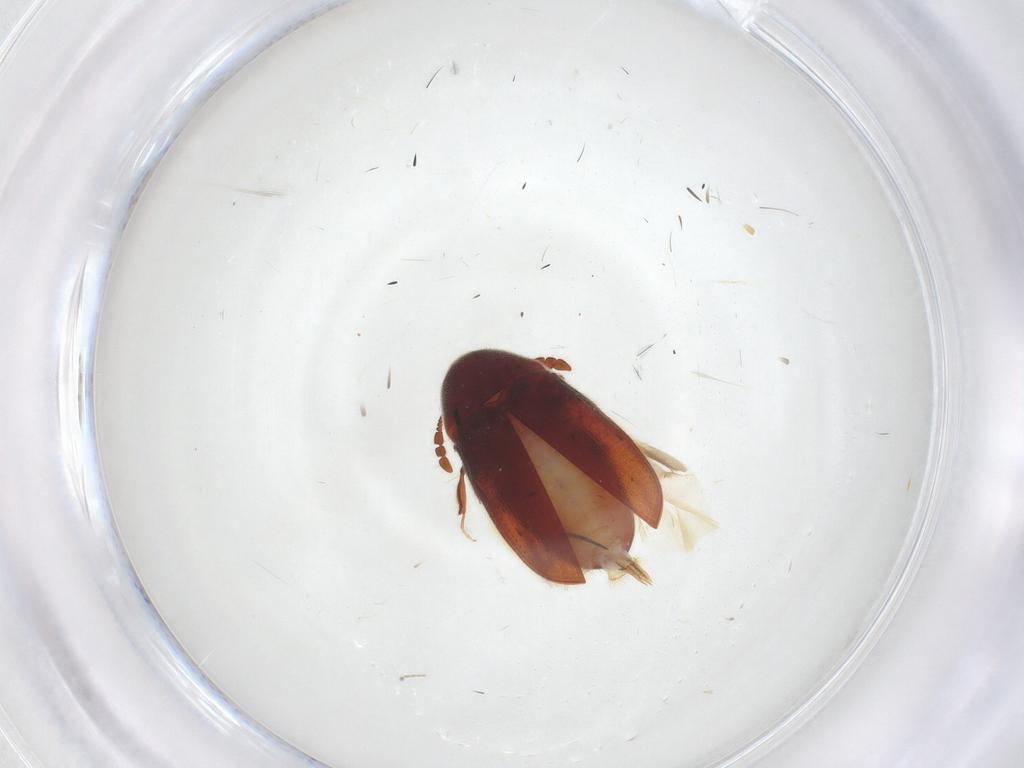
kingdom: Animalia
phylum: Arthropoda
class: Insecta
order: Coleoptera
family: Throscidae
